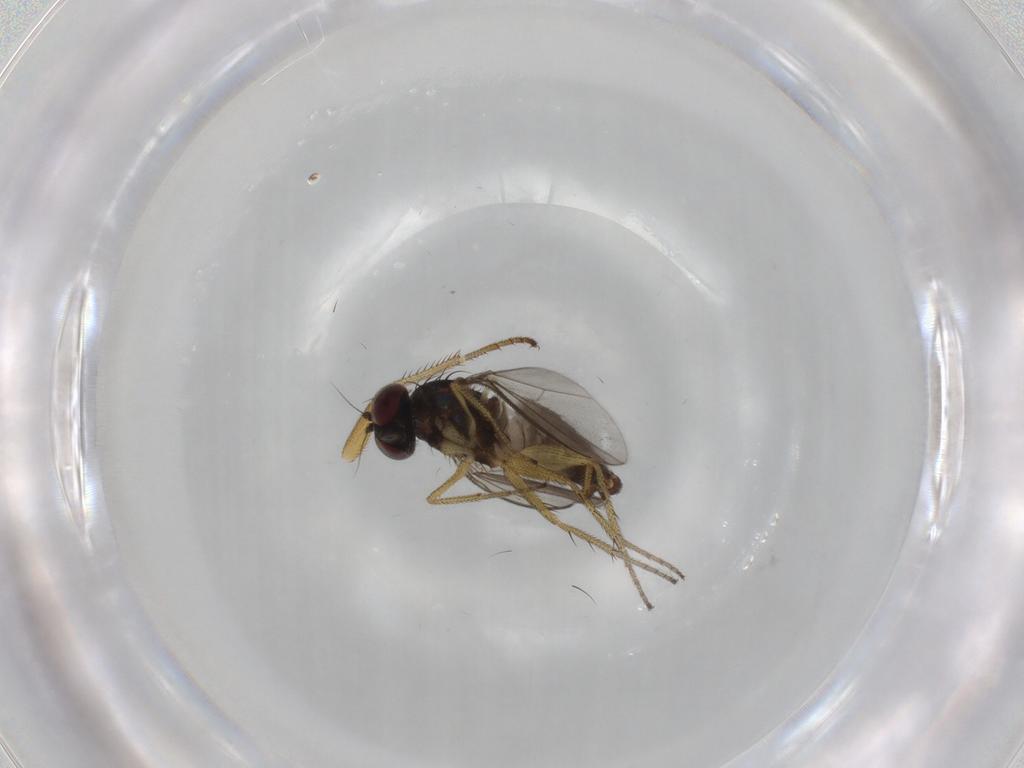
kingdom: Animalia
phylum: Arthropoda
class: Insecta
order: Diptera
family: Dolichopodidae
